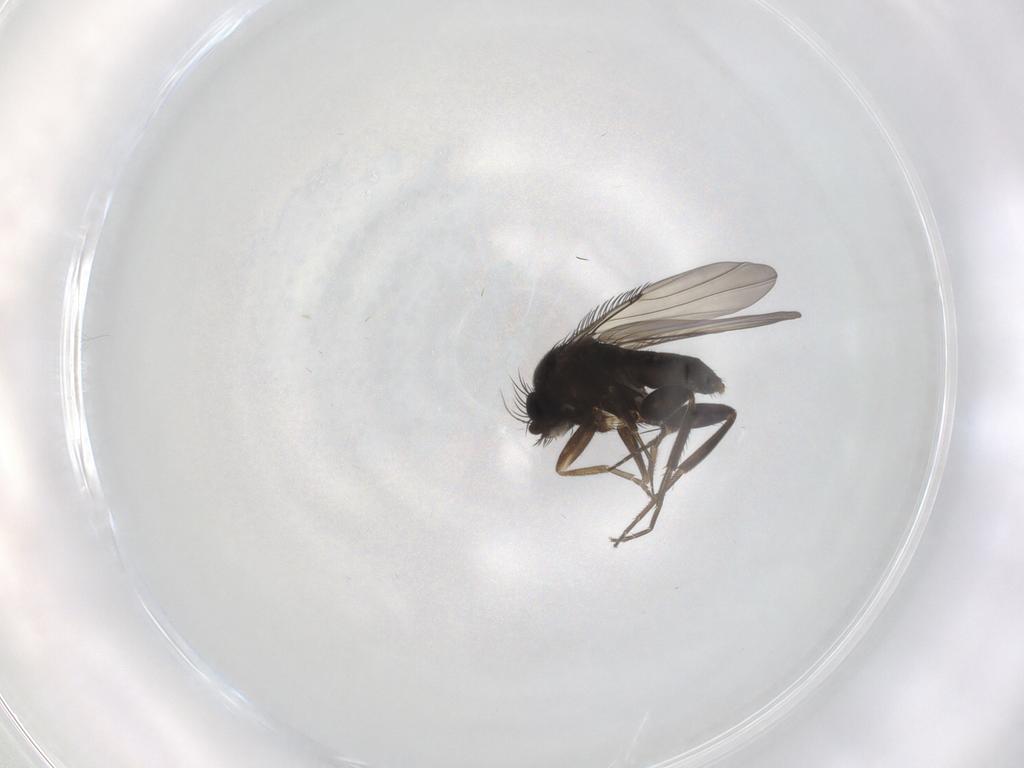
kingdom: Animalia
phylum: Arthropoda
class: Insecta
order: Diptera
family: Phoridae
